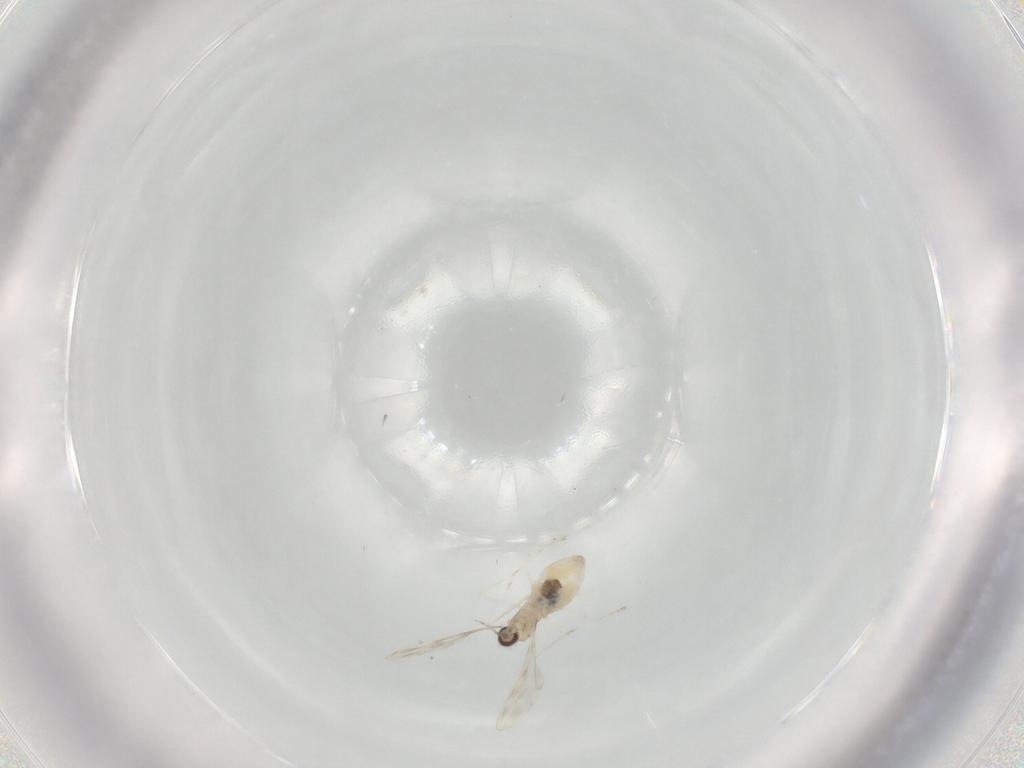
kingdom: Animalia
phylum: Arthropoda
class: Insecta
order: Diptera
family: Cecidomyiidae
